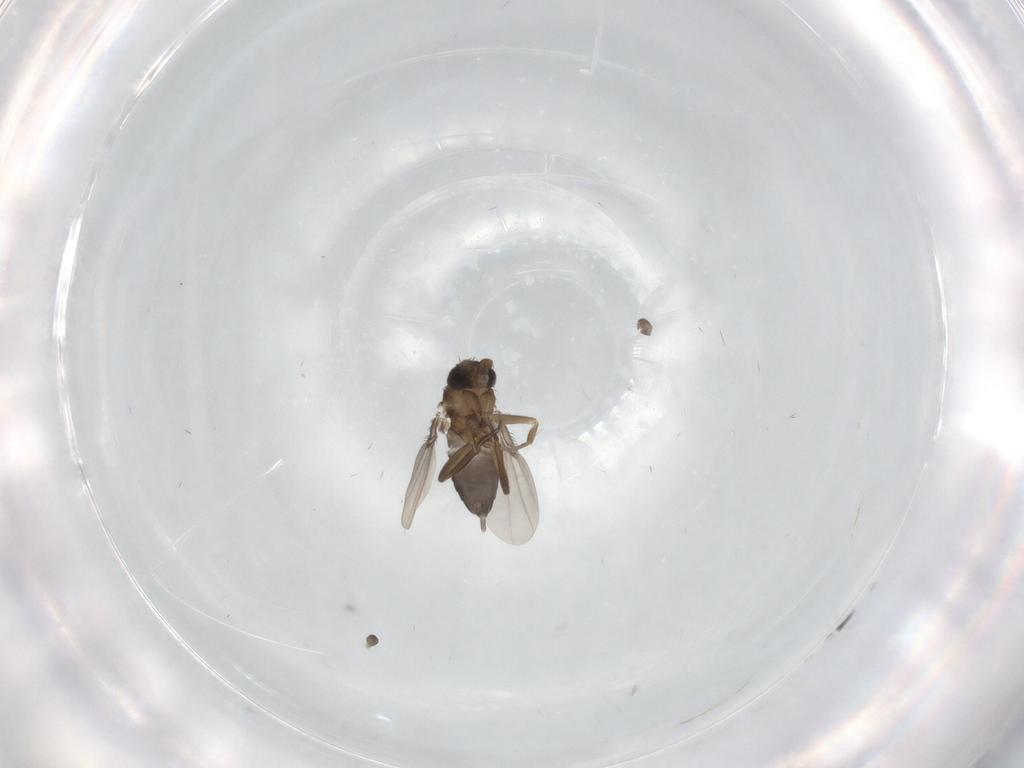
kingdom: Animalia
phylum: Arthropoda
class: Insecta
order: Diptera
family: Phoridae
